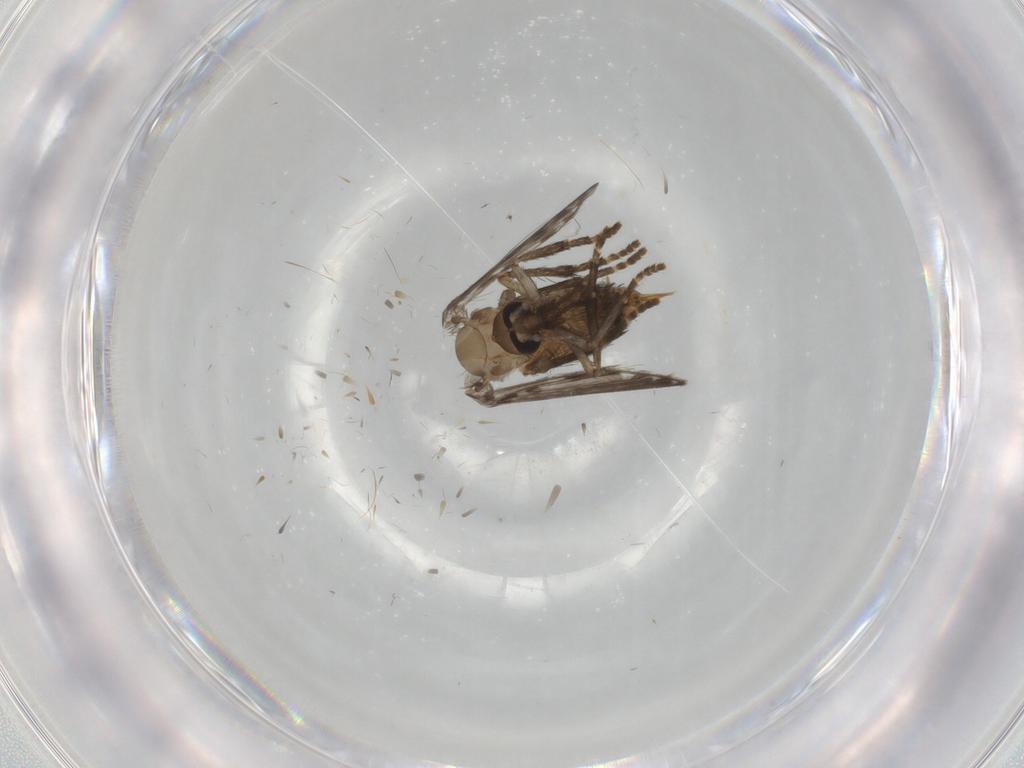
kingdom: Animalia
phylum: Arthropoda
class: Insecta
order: Diptera
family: Psychodidae
